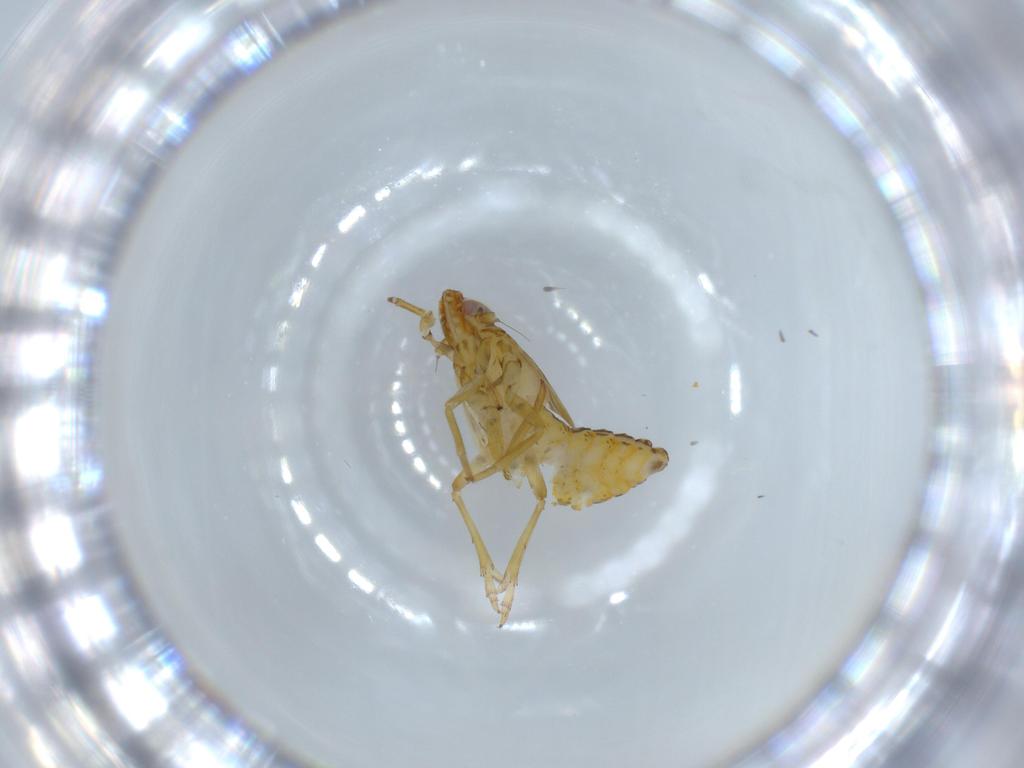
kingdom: Animalia
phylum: Arthropoda
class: Insecta
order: Hemiptera
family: Delphacidae
